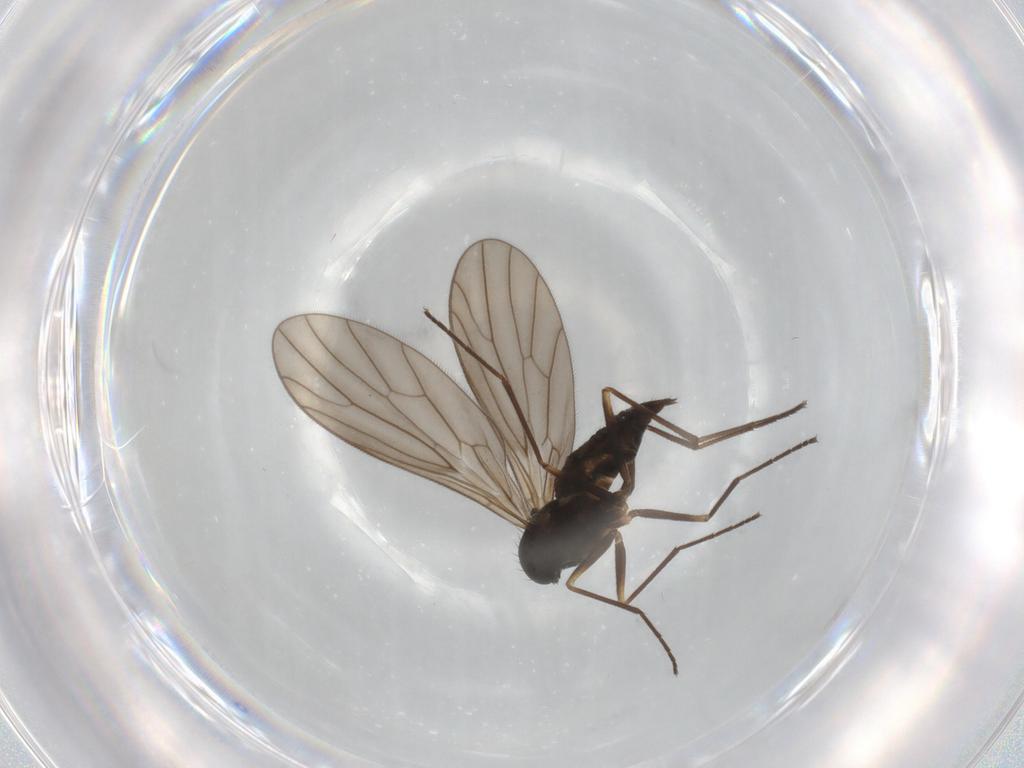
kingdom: Animalia
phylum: Arthropoda
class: Insecta
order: Diptera
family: Empididae
